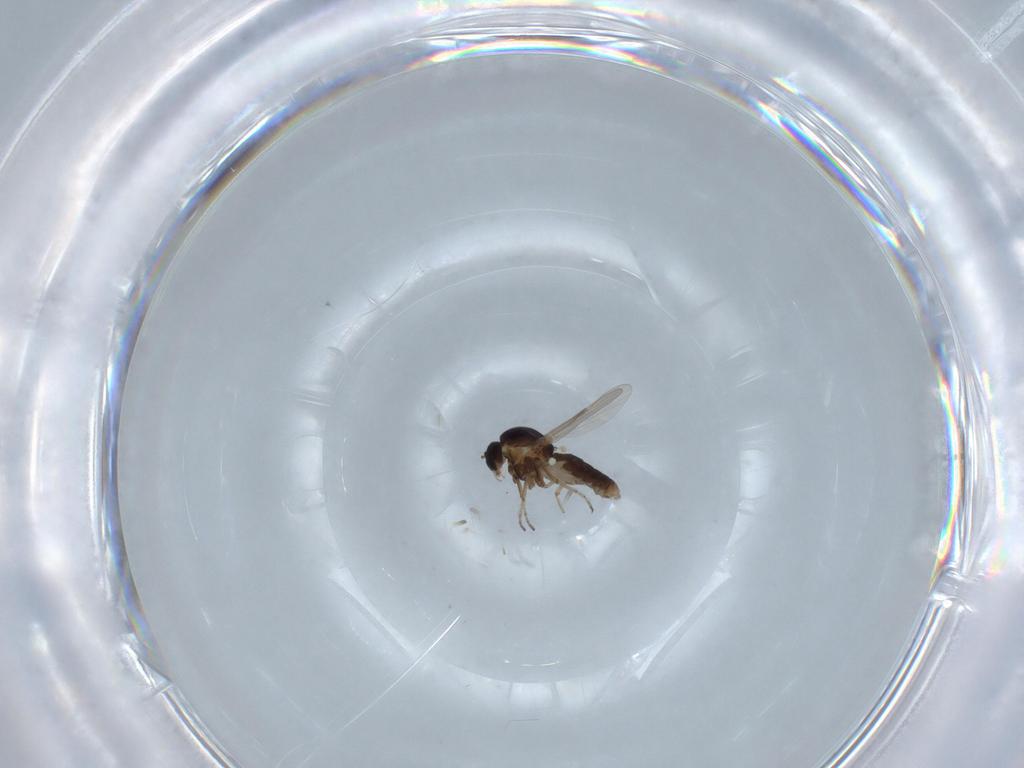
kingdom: Animalia
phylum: Arthropoda
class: Insecta
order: Diptera
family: Ceratopogonidae
